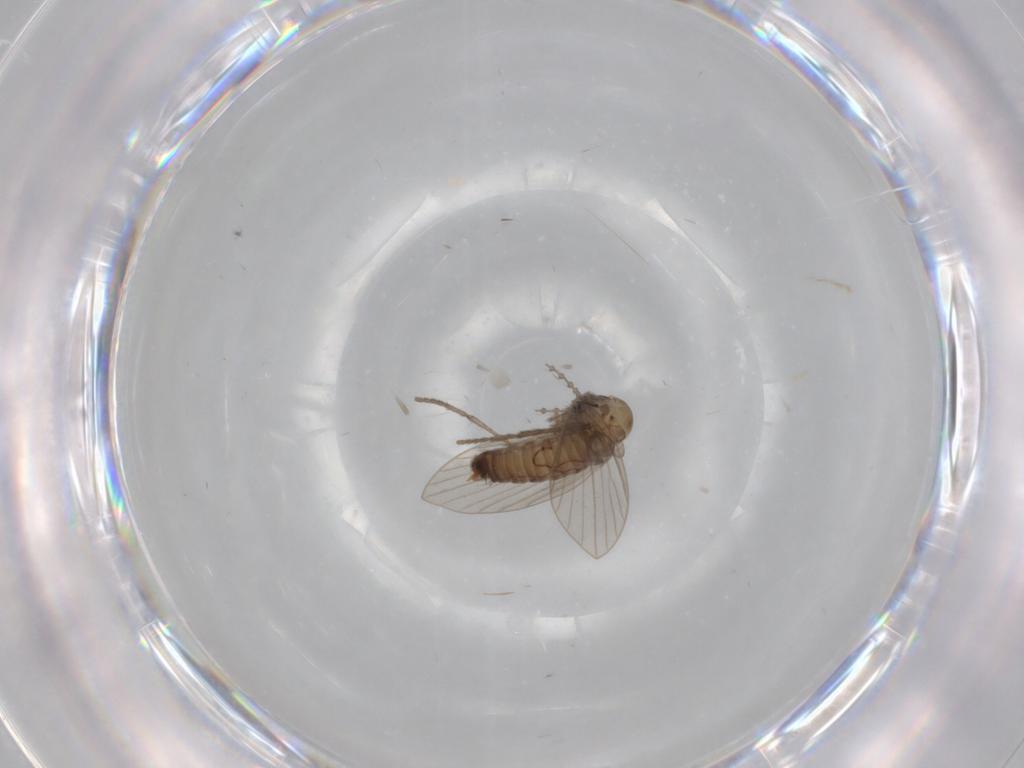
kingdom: Animalia
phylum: Arthropoda
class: Insecta
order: Diptera
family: Psychodidae
